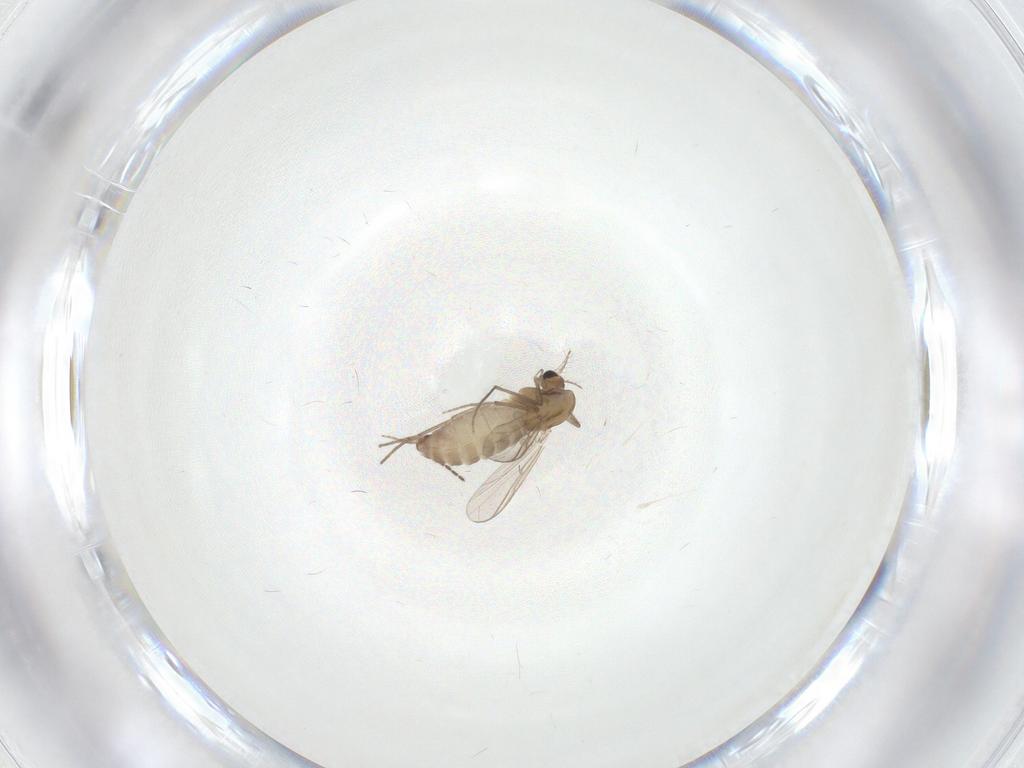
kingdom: Animalia
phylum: Arthropoda
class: Insecta
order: Diptera
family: Chironomidae
